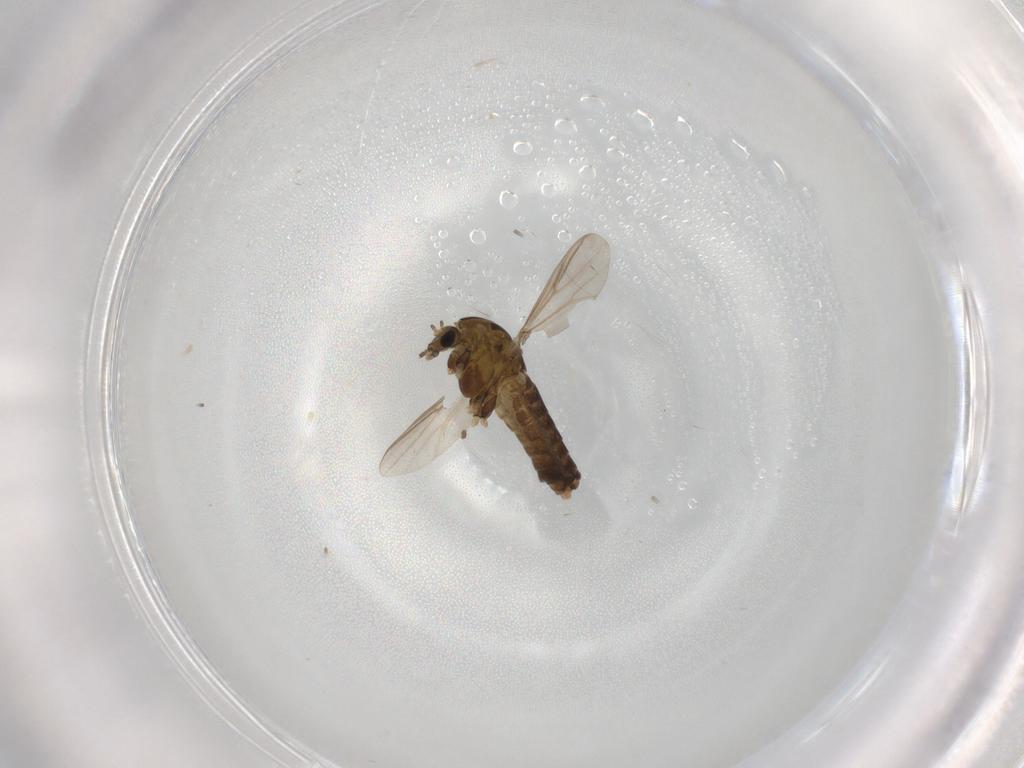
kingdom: Animalia
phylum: Arthropoda
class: Insecta
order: Diptera
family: Chironomidae
